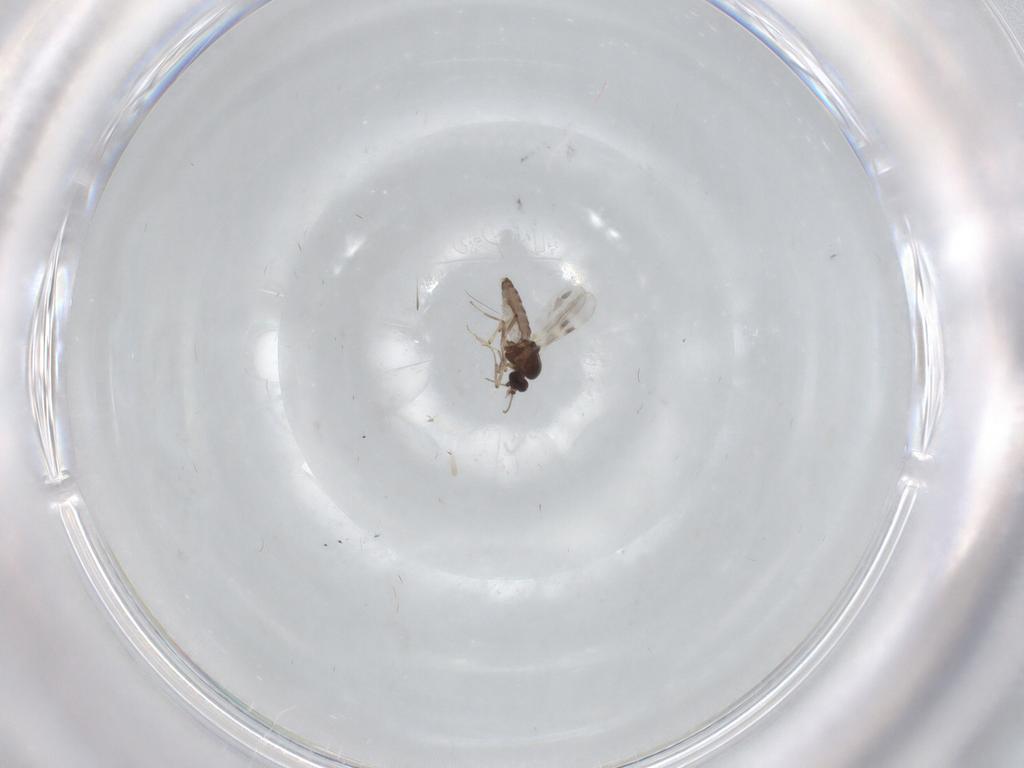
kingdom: Animalia
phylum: Arthropoda
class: Insecta
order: Diptera
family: Hybotidae
